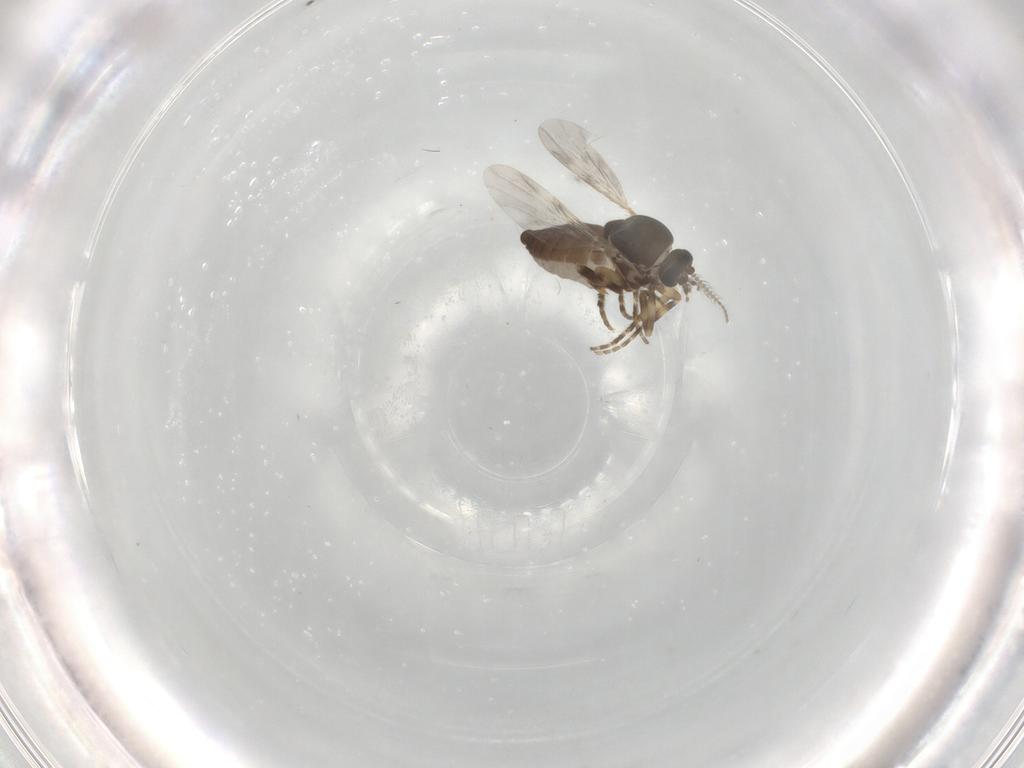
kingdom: Animalia
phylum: Arthropoda
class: Insecta
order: Diptera
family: Ceratopogonidae
